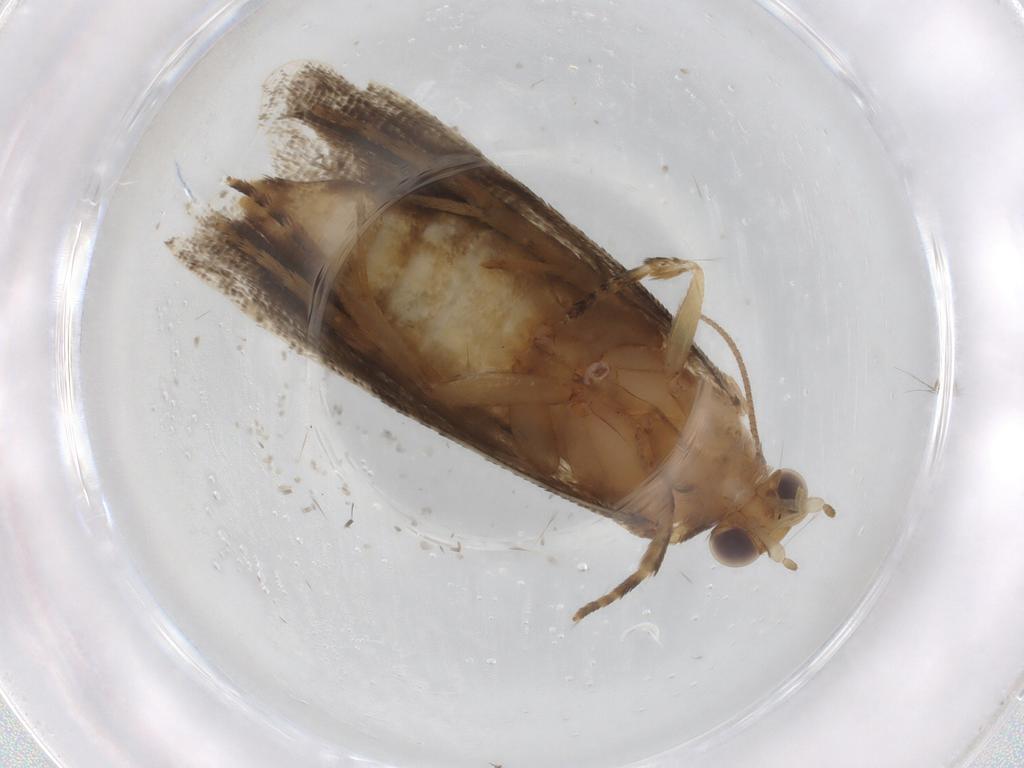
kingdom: Animalia
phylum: Arthropoda
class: Insecta
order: Lepidoptera
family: Tortricidae
